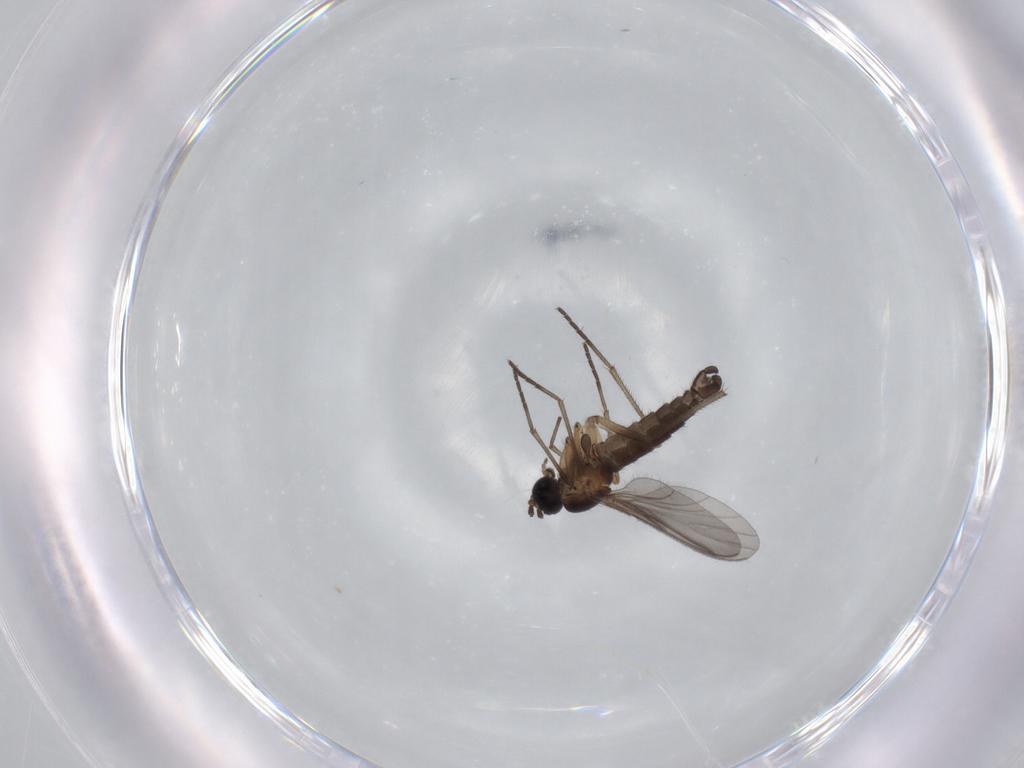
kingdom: Animalia
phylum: Arthropoda
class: Insecta
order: Diptera
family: Sciaridae
